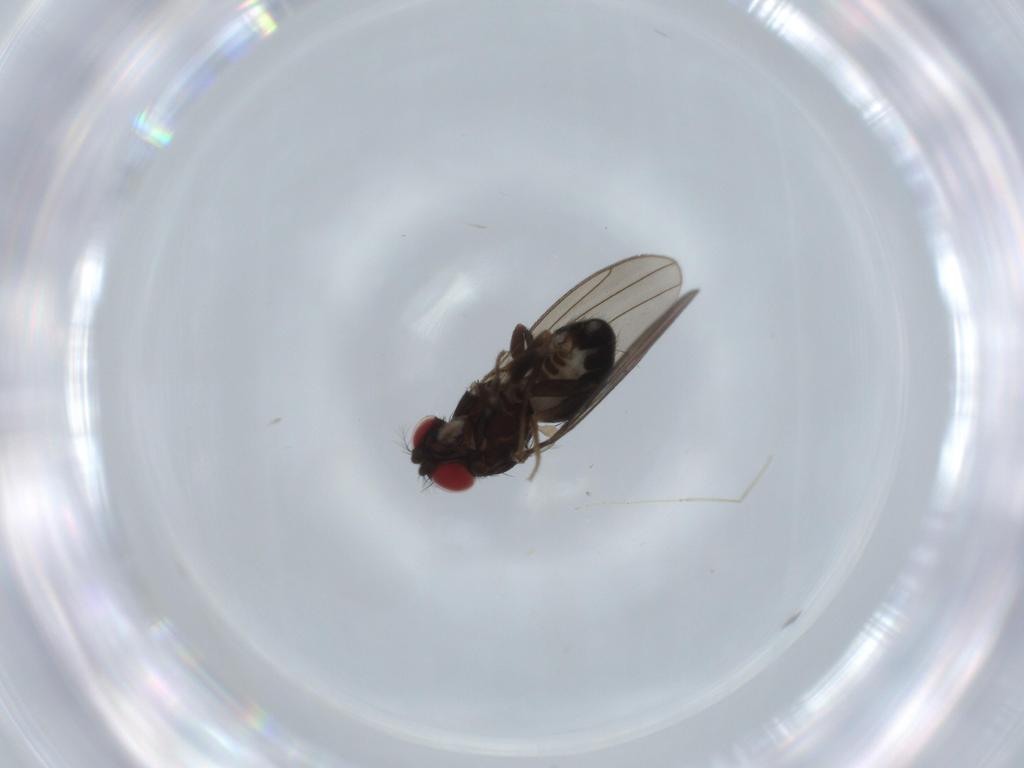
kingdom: Animalia
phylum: Arthropoda
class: Insecta
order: Diptera
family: Drosophilidae
